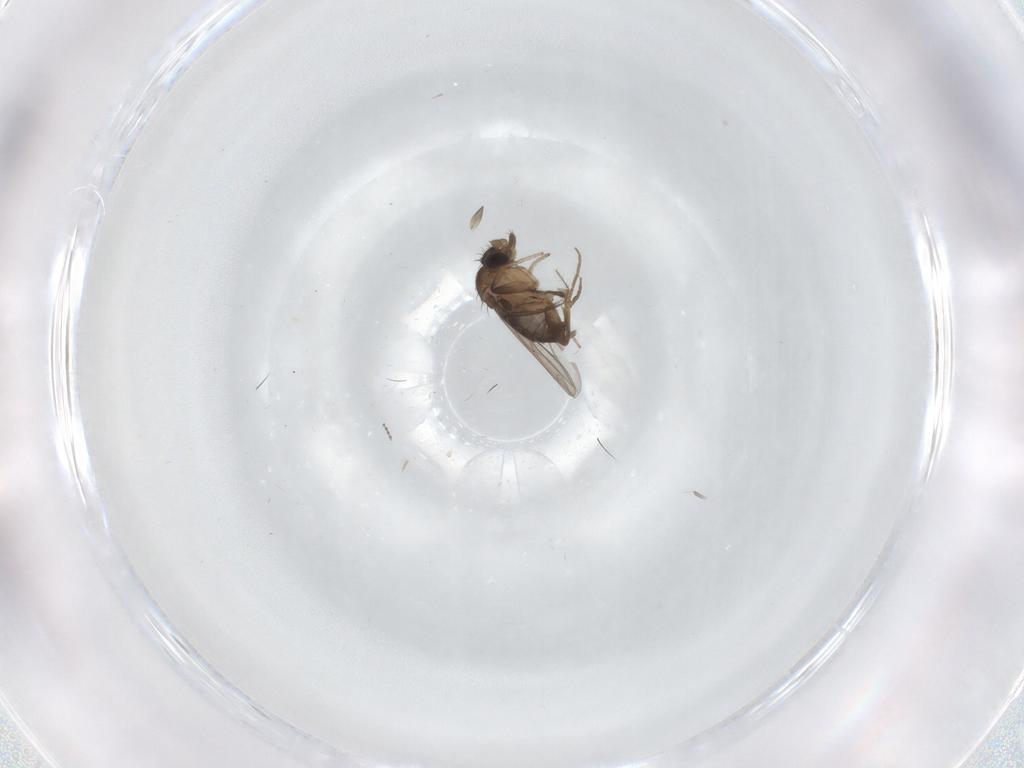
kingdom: Animalia
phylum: Arthropoda
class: Insecta
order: Diptera
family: Phoridae
